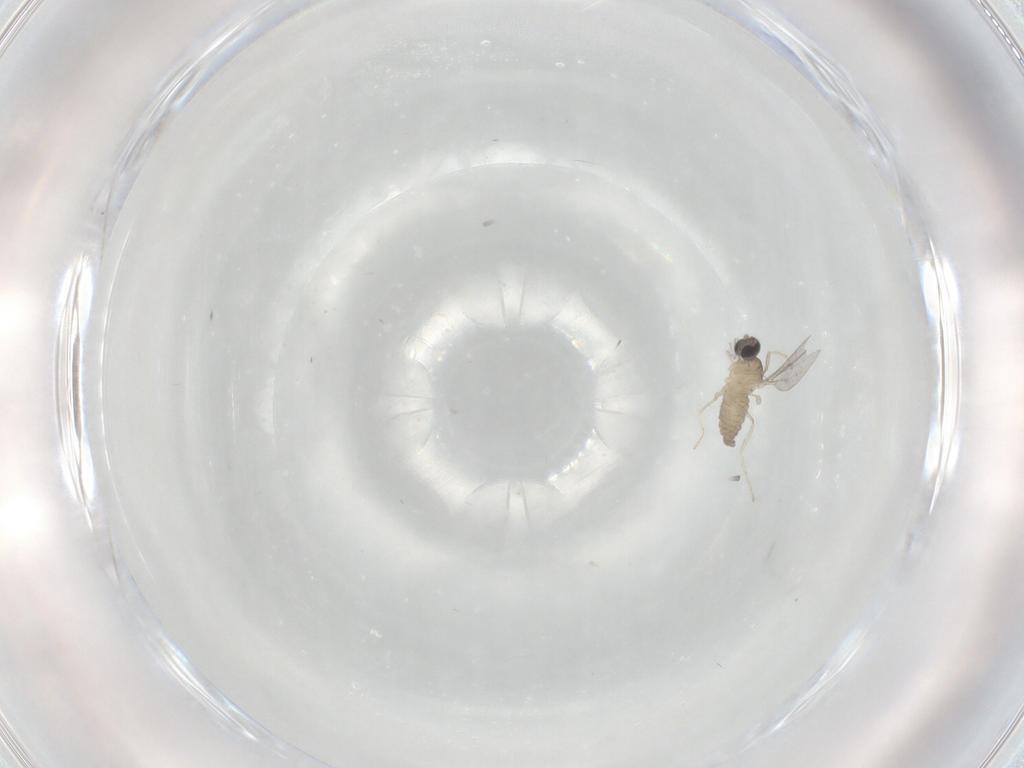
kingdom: Animalia
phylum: Arthropoda
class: Insecta
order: Diptera
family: Cecidomyiidae
